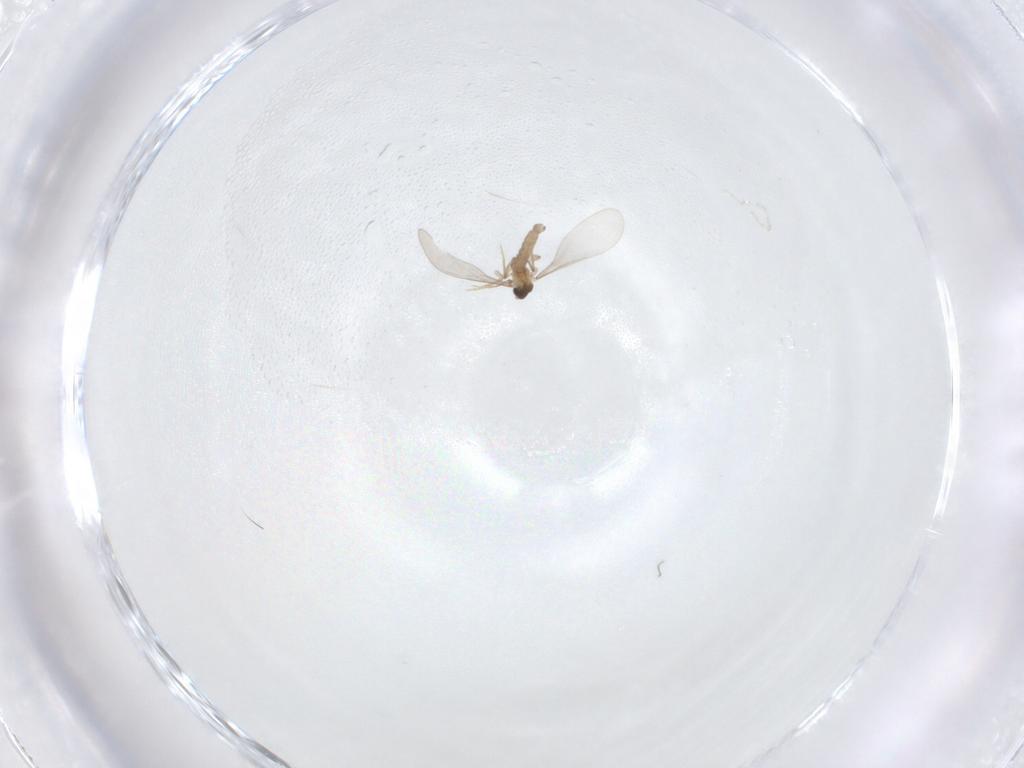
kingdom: Animalia
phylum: Arthropoda
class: Insecta
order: Diptera
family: Cecidomyiidae
